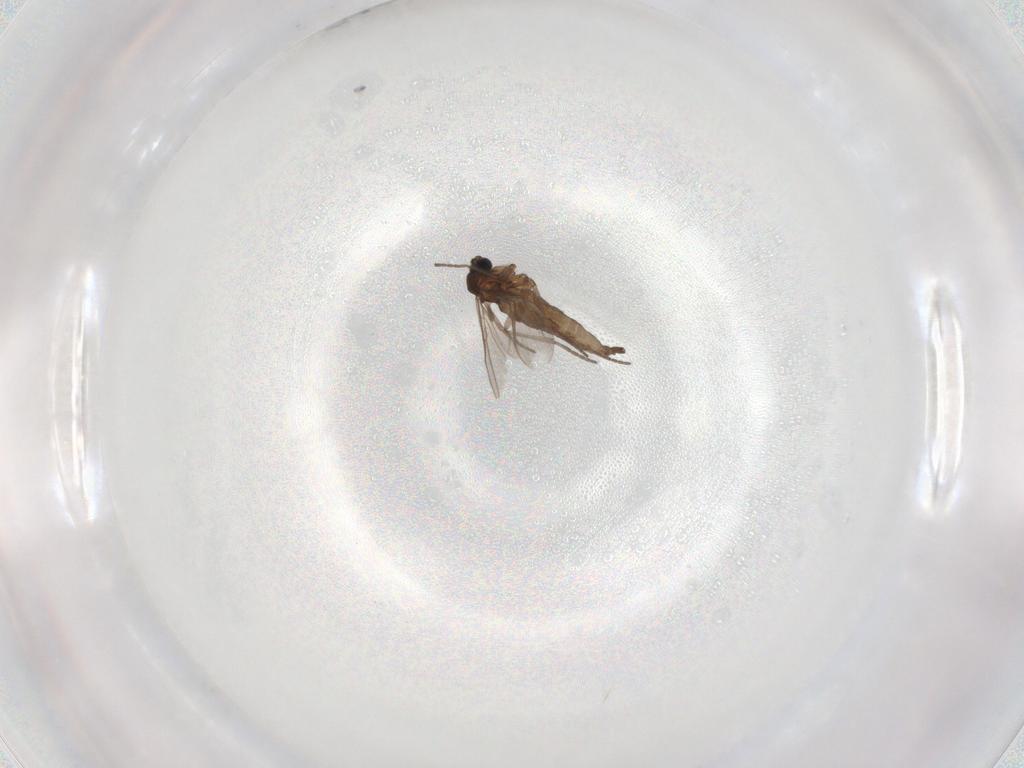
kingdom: Animalia
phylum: Arthropoda
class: Insecta
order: Diptera
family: Sciaridae
